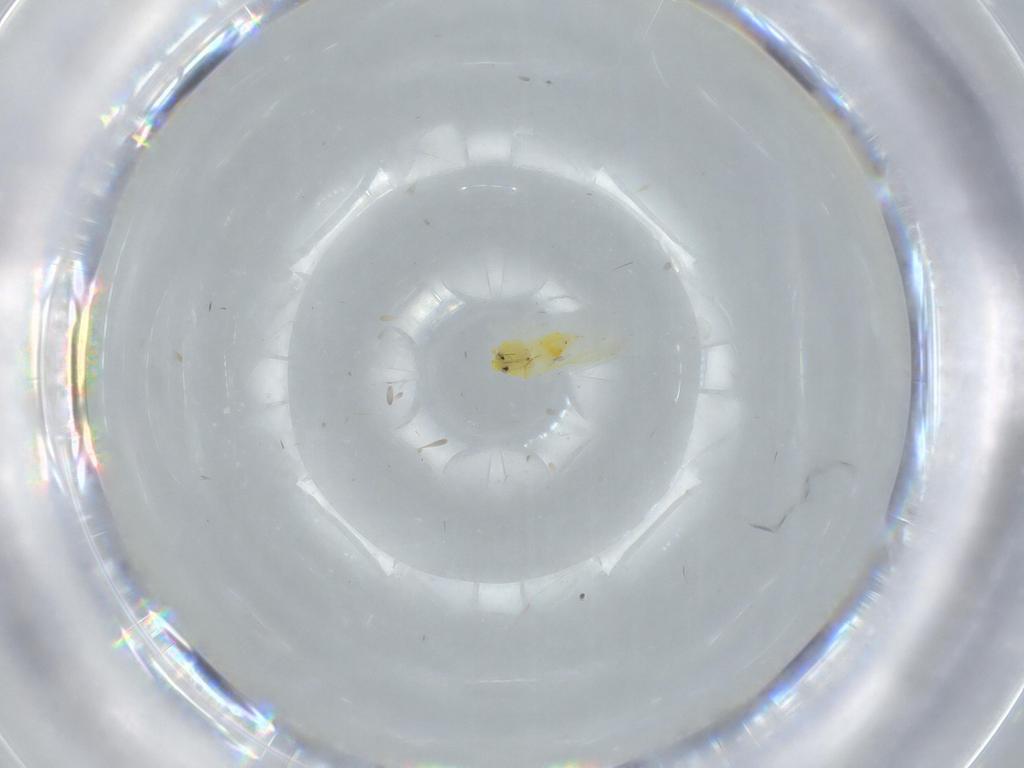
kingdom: Animalia
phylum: Arthropoda
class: Insecta
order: Hemiptera
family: Aleyrodidae
